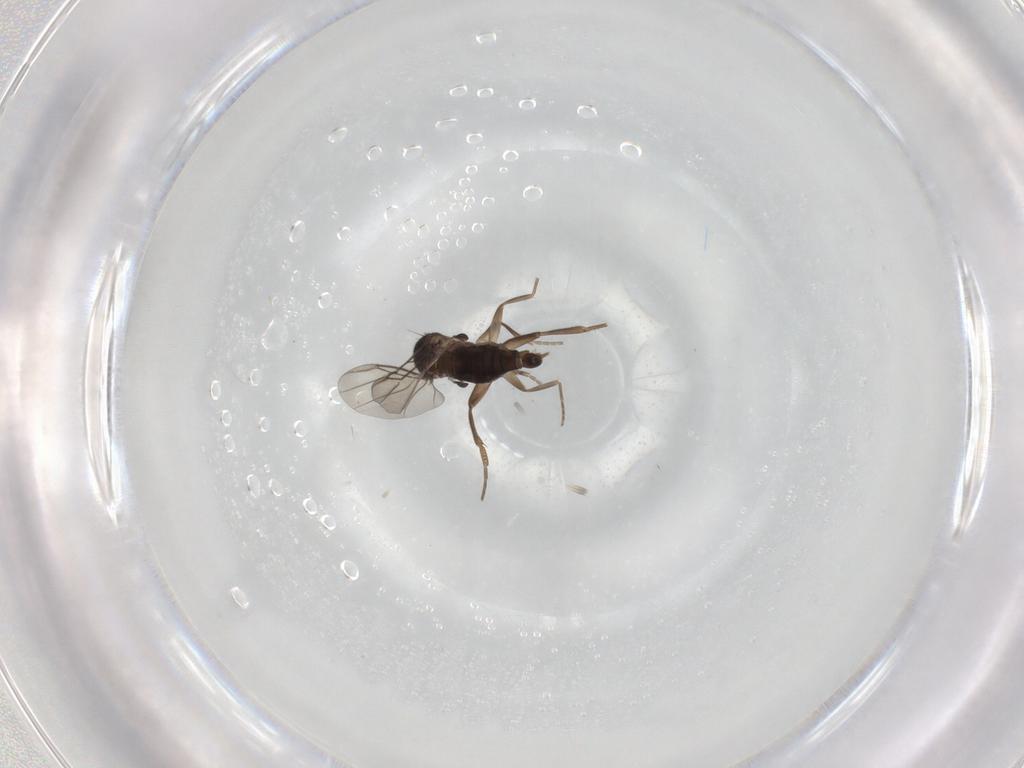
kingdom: Animalia
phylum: Arthropoda
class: Insecta
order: Diptera
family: Phoridae
